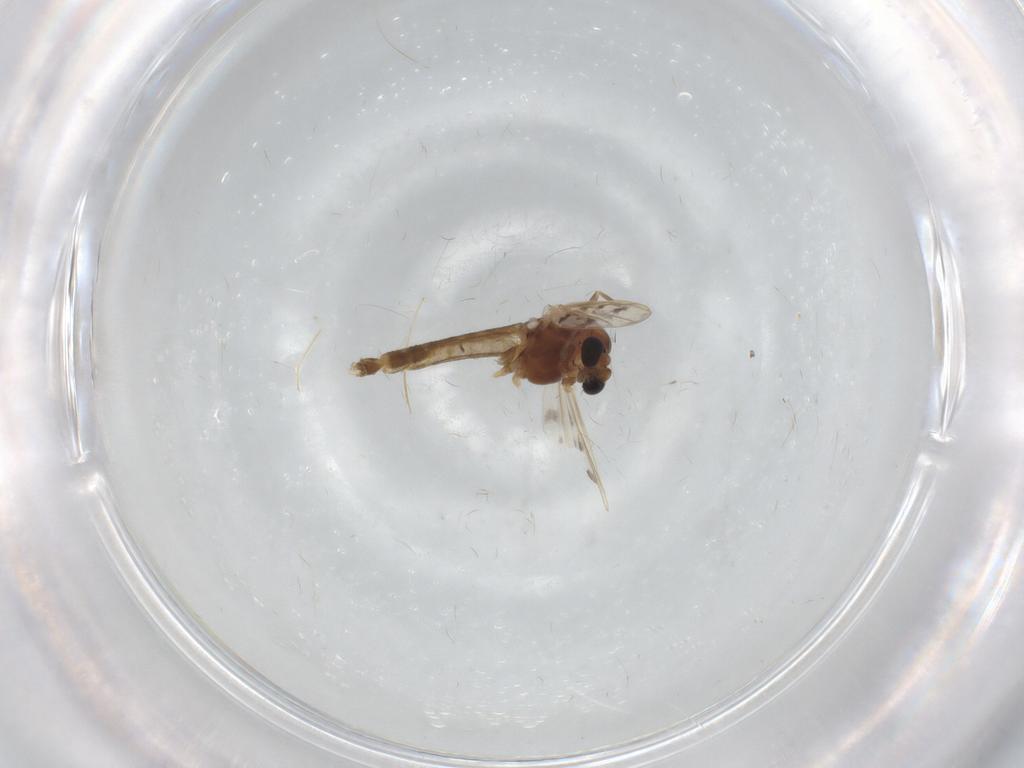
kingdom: Animalia
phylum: Arthropoda
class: Insecta
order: Diptera
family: Chironomidae
